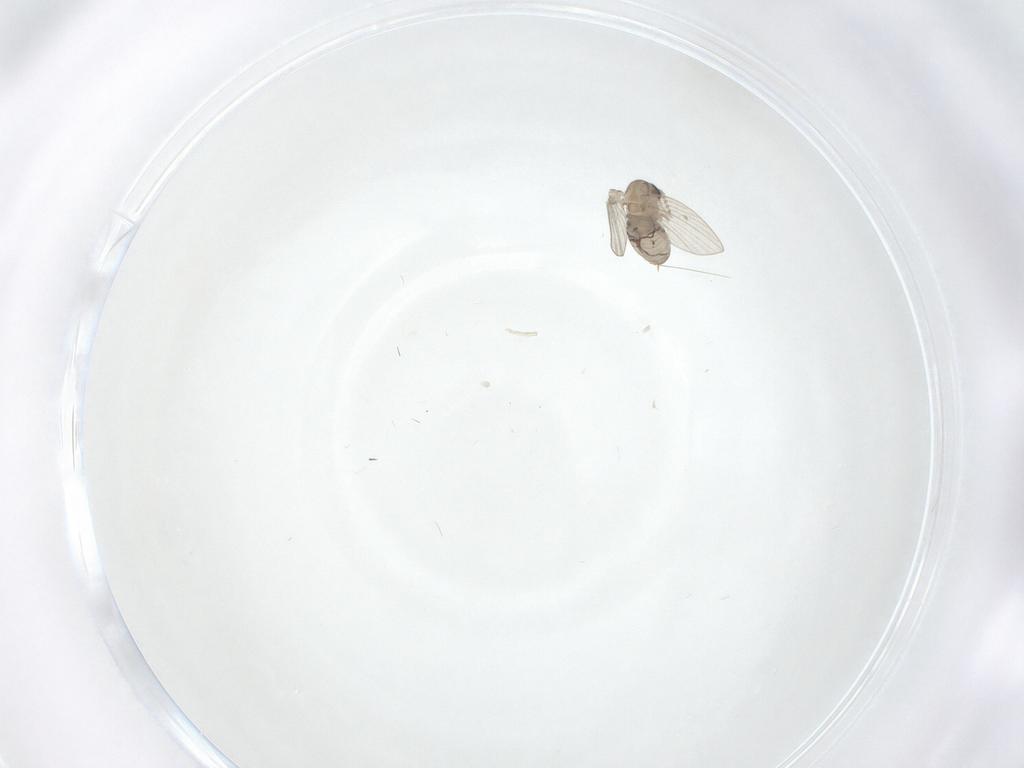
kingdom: Animalia
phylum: Arthropoda
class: Insecta
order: Diptera
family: Psychodidae
